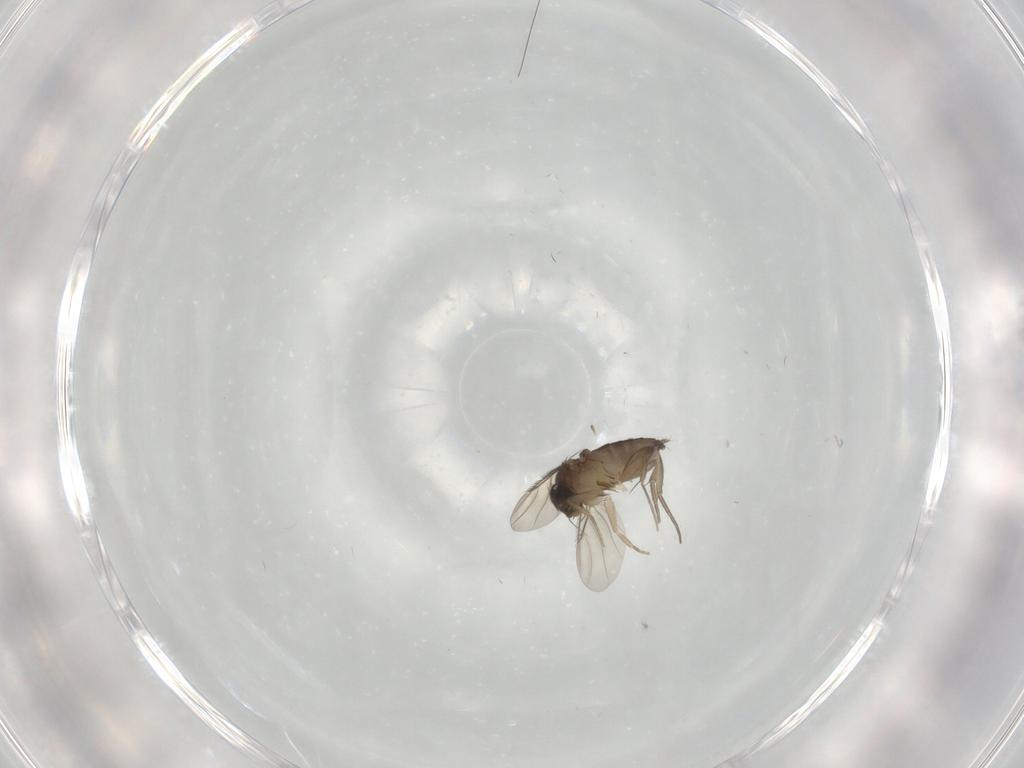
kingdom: Animalia
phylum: Arthropoda
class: Insecta
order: Diptera
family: Phoridae
